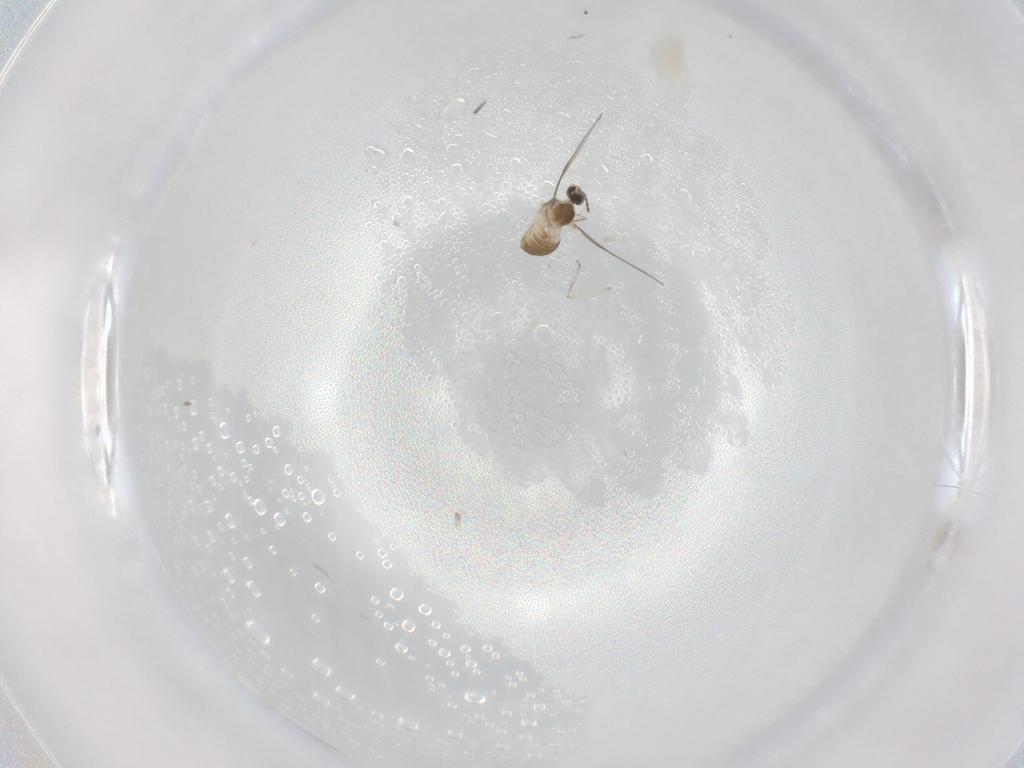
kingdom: Animalia
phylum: Arthropoda
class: Insecta
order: Diptera
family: Cecidomyiidae
